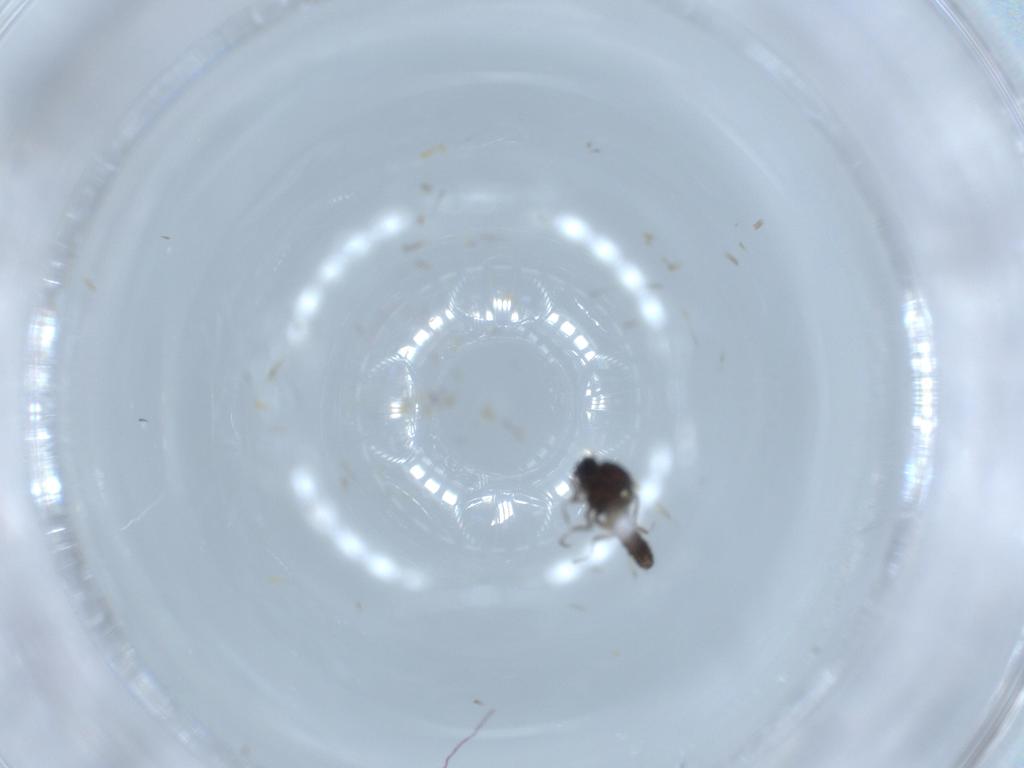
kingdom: Animalia
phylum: Arthropoda
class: Insecta
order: Diptera
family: Ceratopogonidae
